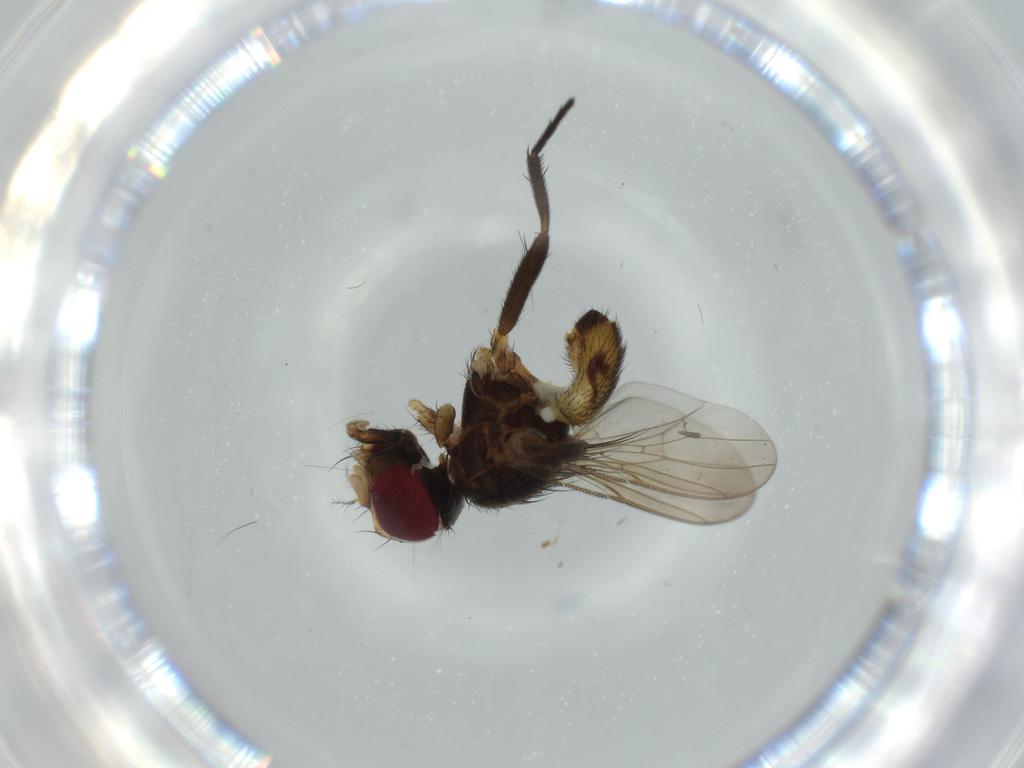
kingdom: Animalia
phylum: Arthropoda
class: Insecta
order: Diptera
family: Anthomyiidae
